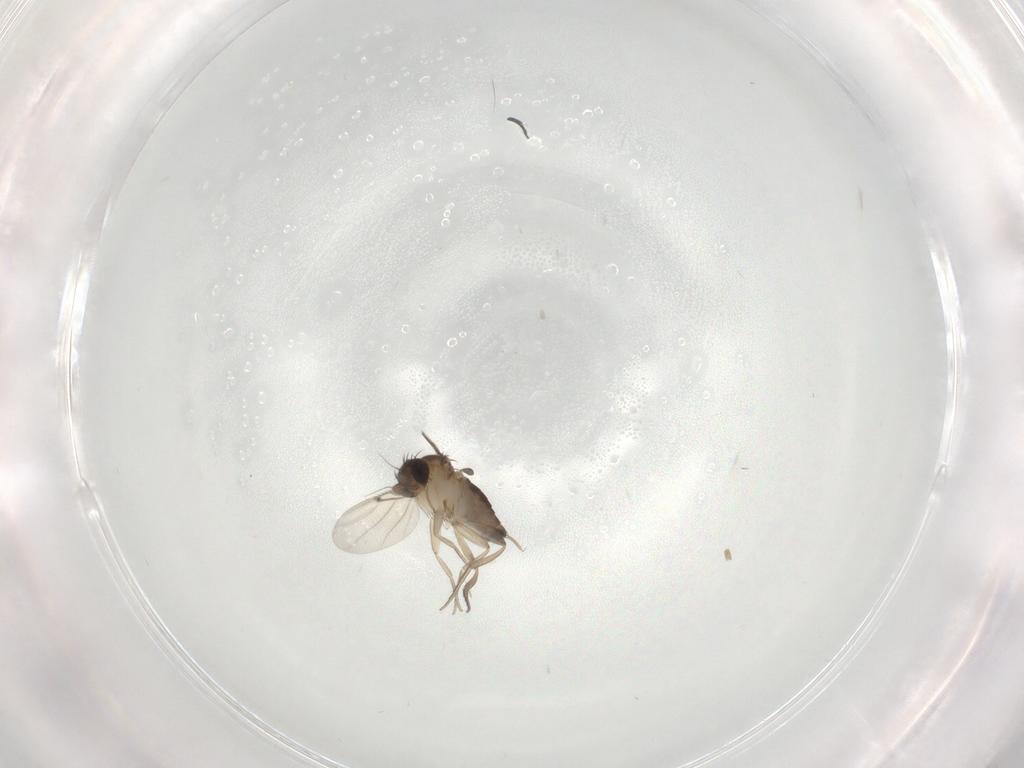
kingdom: Animalia
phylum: Arthropoda
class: Insecta
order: Diptera
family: Phoridae
